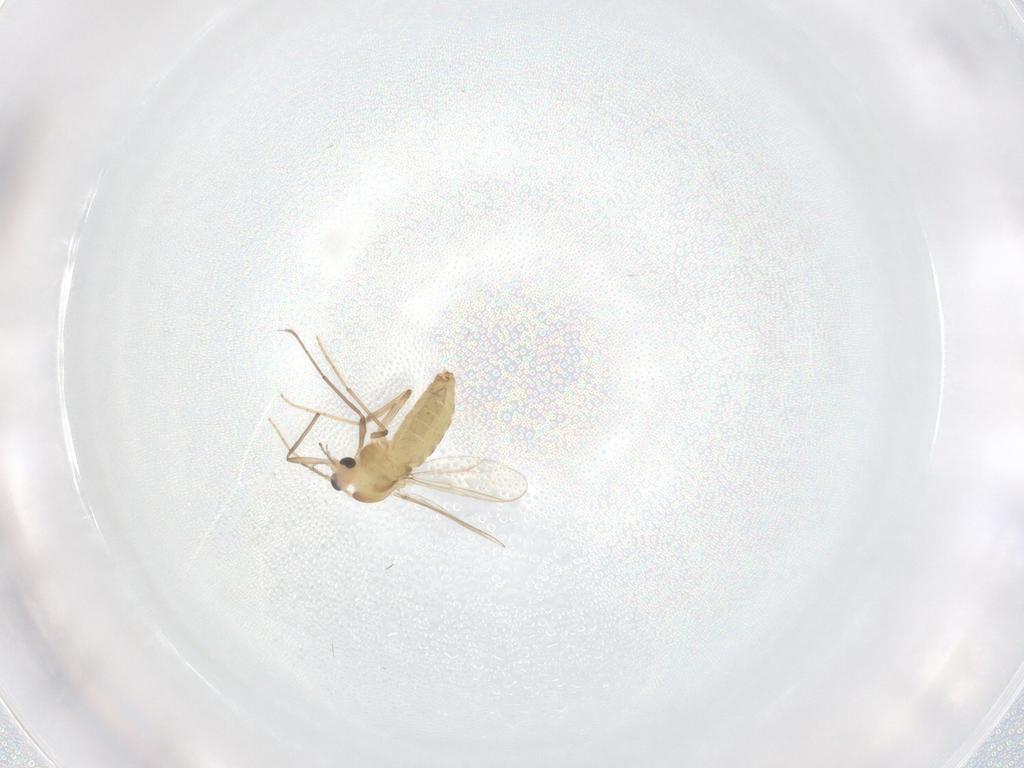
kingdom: Animalia
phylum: Arthropoda
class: Insecta
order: Diptera
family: Chironomidae
